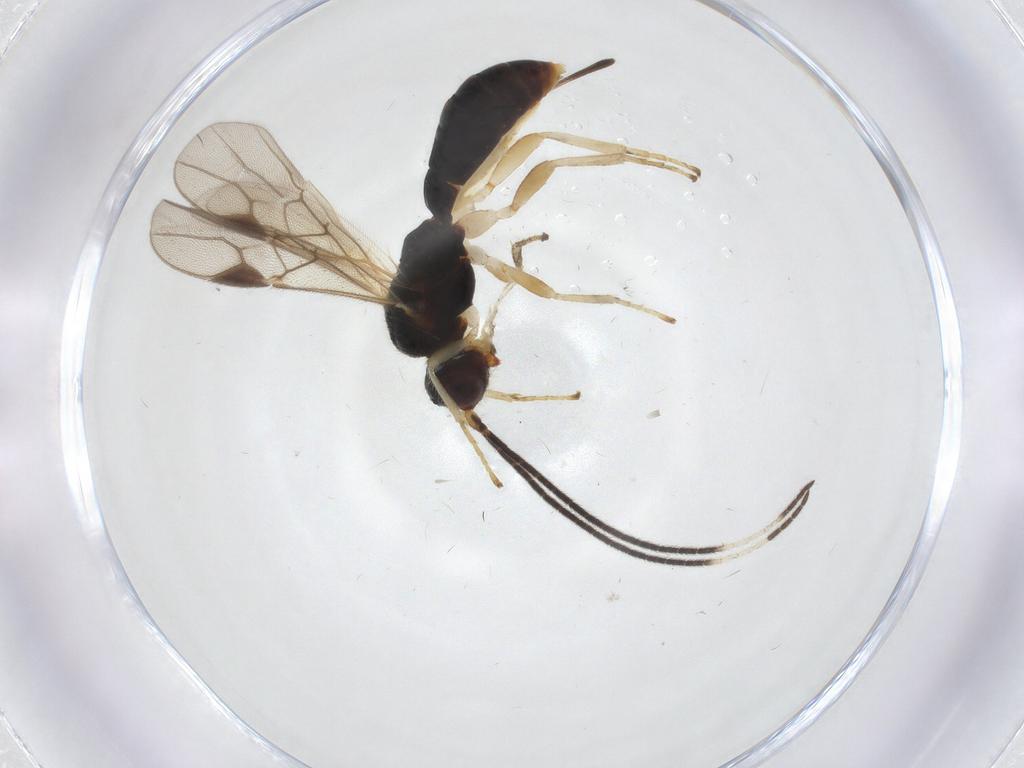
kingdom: Animalia
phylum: Arthropoda
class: Insecta
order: Hymenoptera
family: Braconidae
